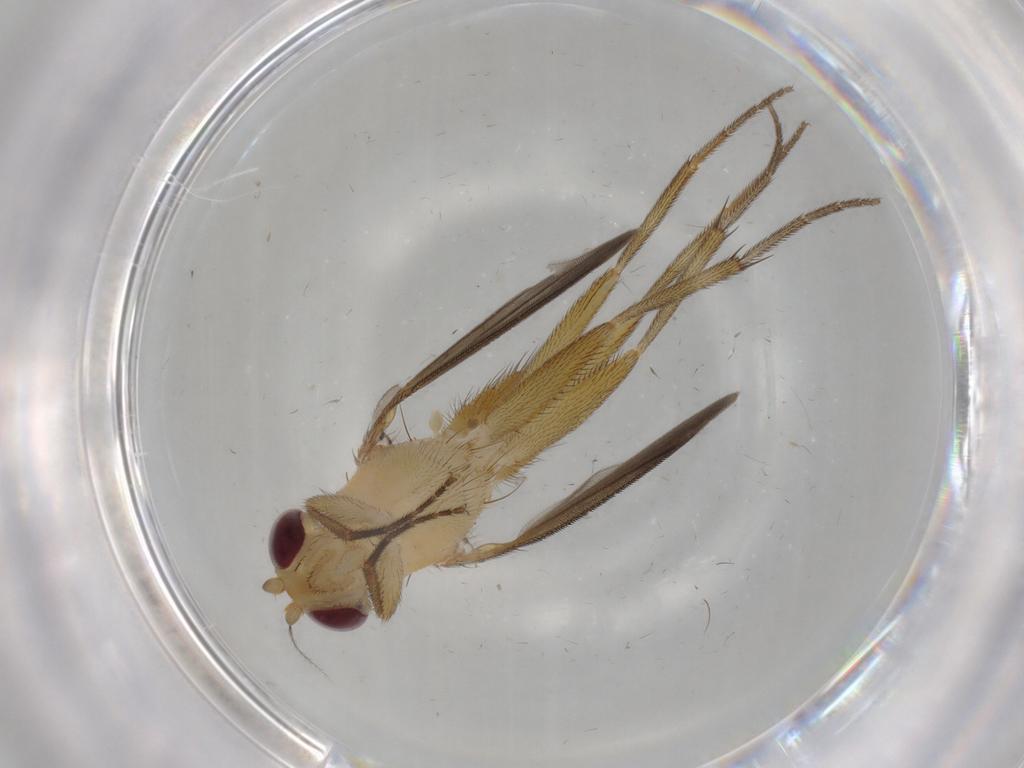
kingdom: Animalia
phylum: Arthropoda
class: Insecta
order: Diptera
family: Clusiidae
